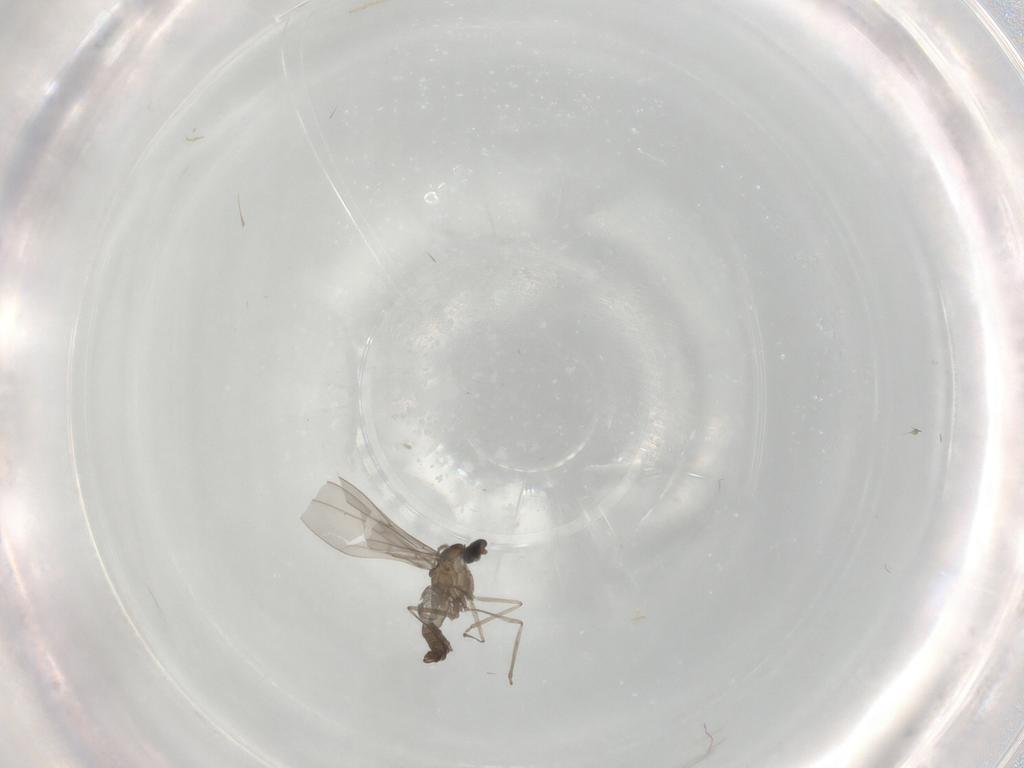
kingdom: Animalia
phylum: Arthropoda
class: Insecta
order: Diptera
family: Cecidomyiidae
